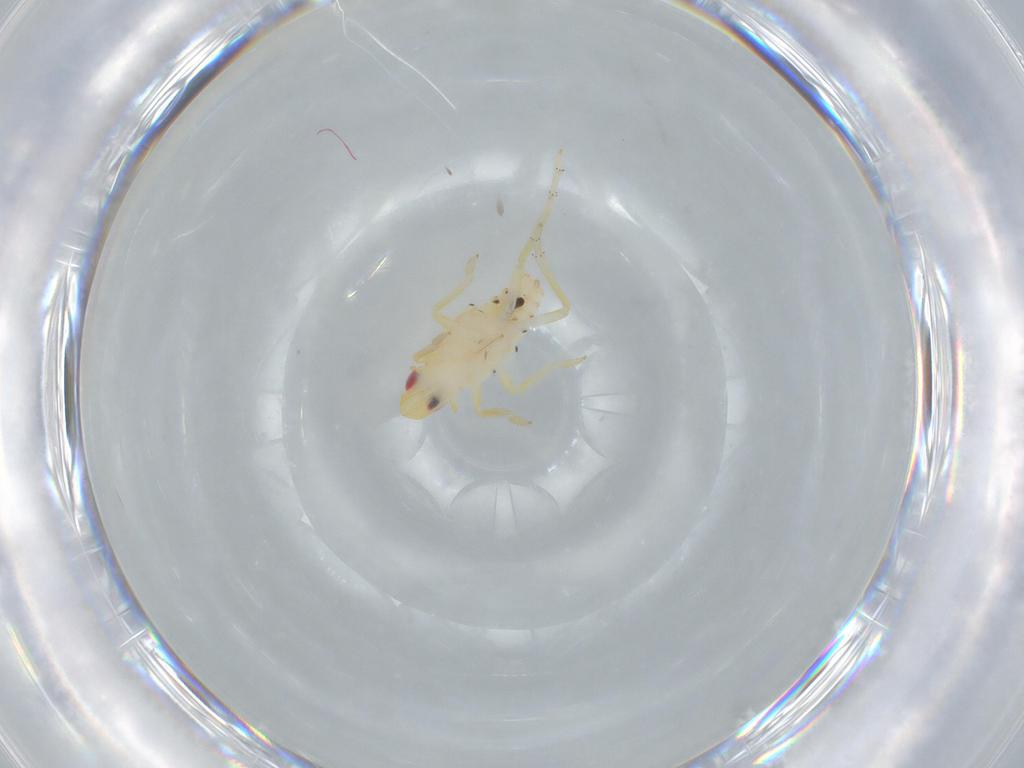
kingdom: Animalia
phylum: Arthropoda
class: Insecta
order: Hemiptera
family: Tropiduchidae
